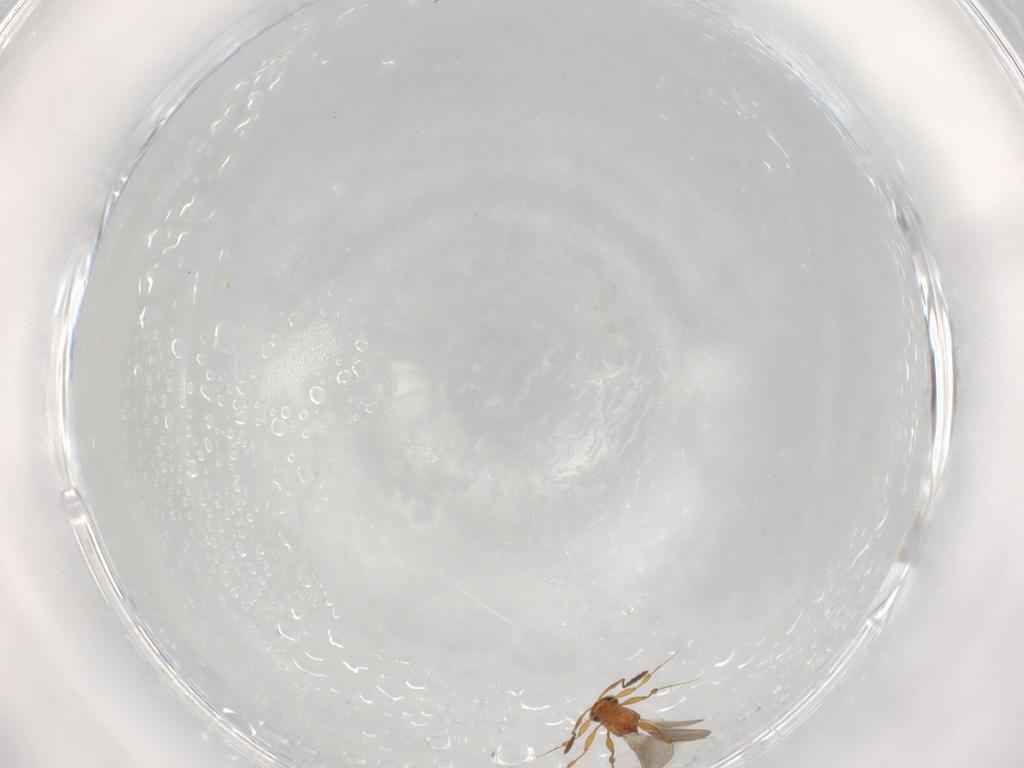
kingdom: Animalia
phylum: Arthropoda
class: Insecta
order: Hymenoptera
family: Platygastridae
